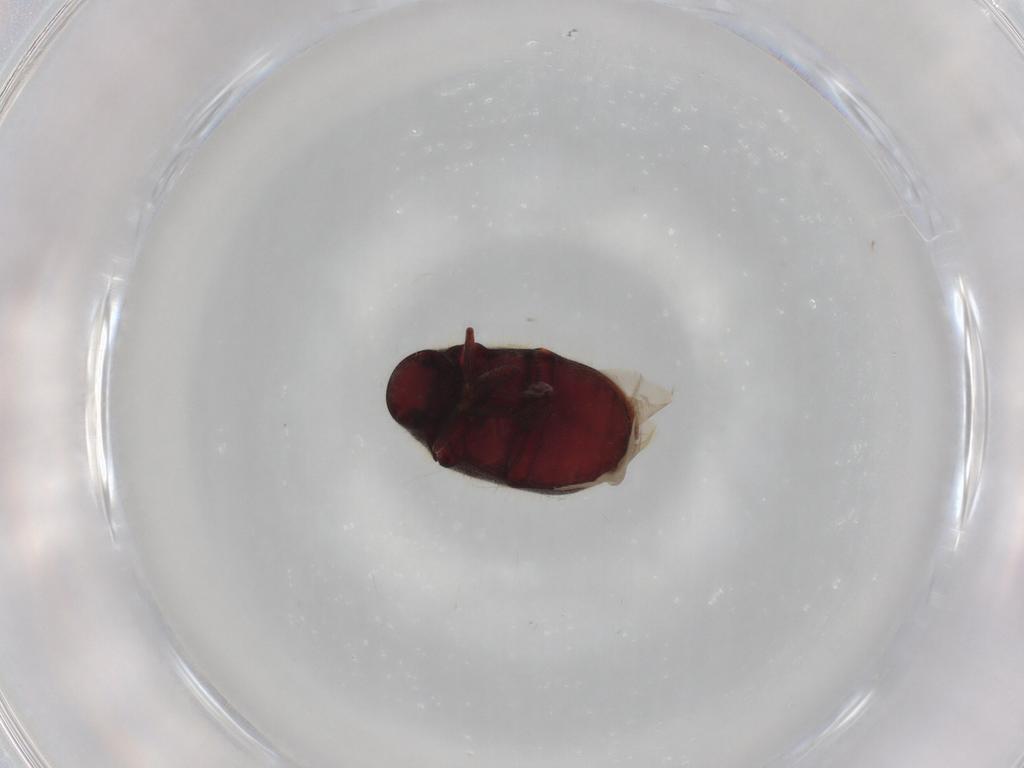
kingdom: Animalia
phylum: Arthropoda
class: Insecta
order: Coleoptera
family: Ptinidae
